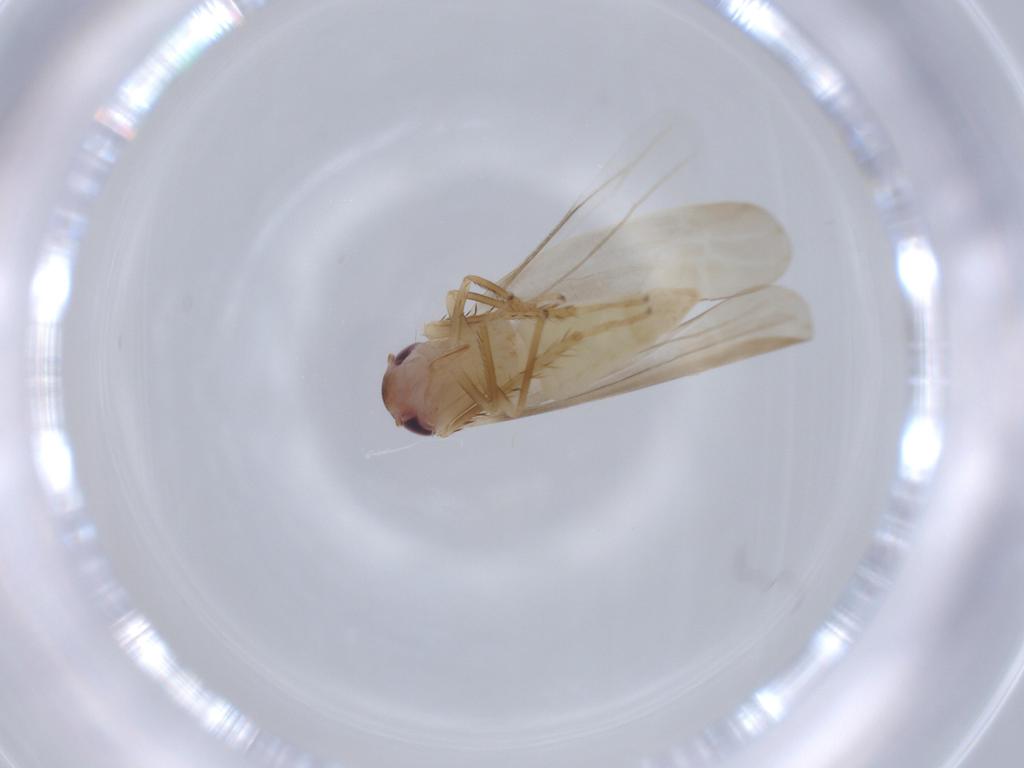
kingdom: Animalia
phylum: Arthropoda
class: Insecta
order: Hemiptera
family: Cicadellidae
